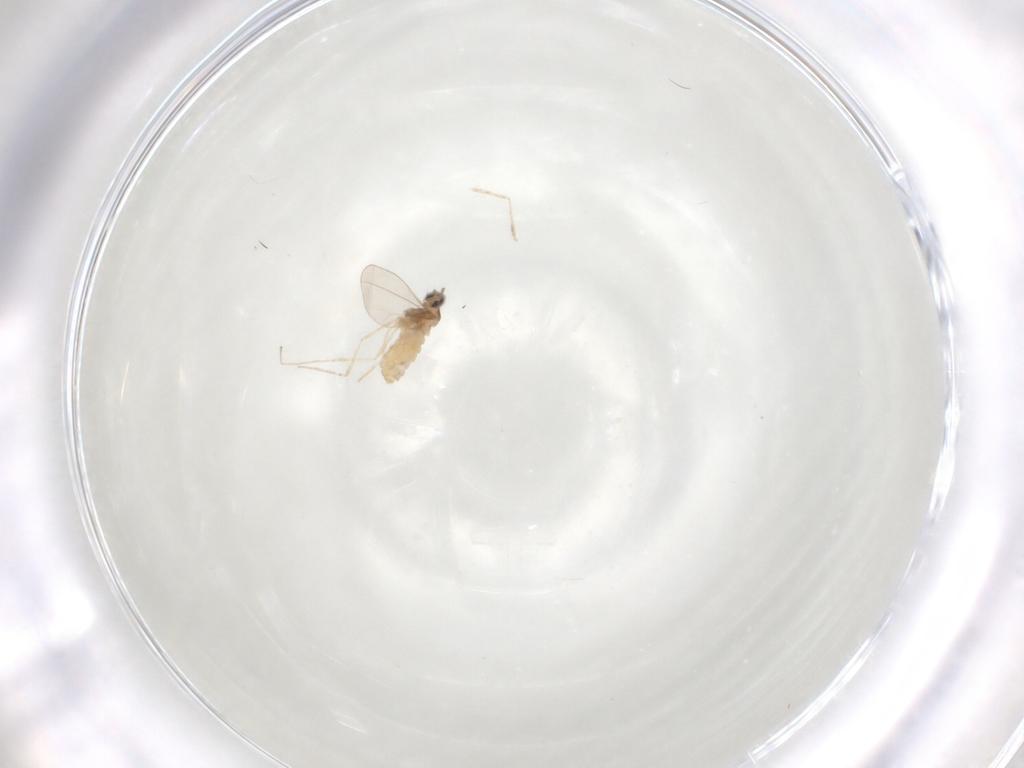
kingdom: Animalia
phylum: Arthropoda
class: Insecta
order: Diptera
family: Cecidomyiidae
